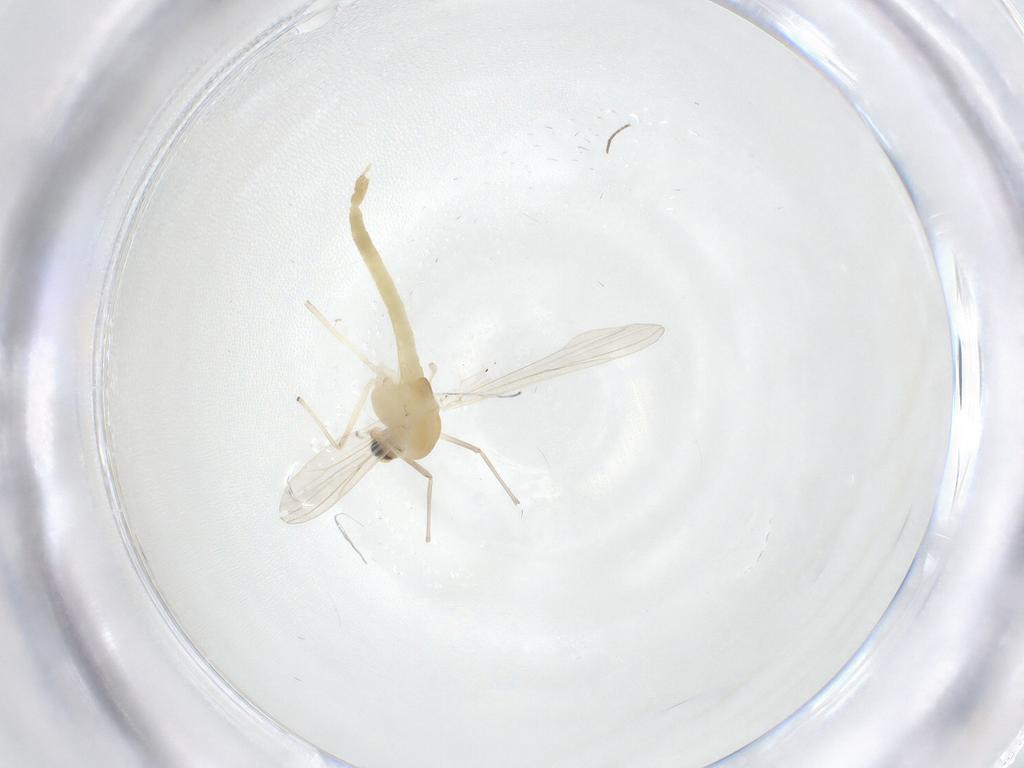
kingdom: Animalia
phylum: Arthropoda
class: Insecta
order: Diptera
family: Chironomidae
